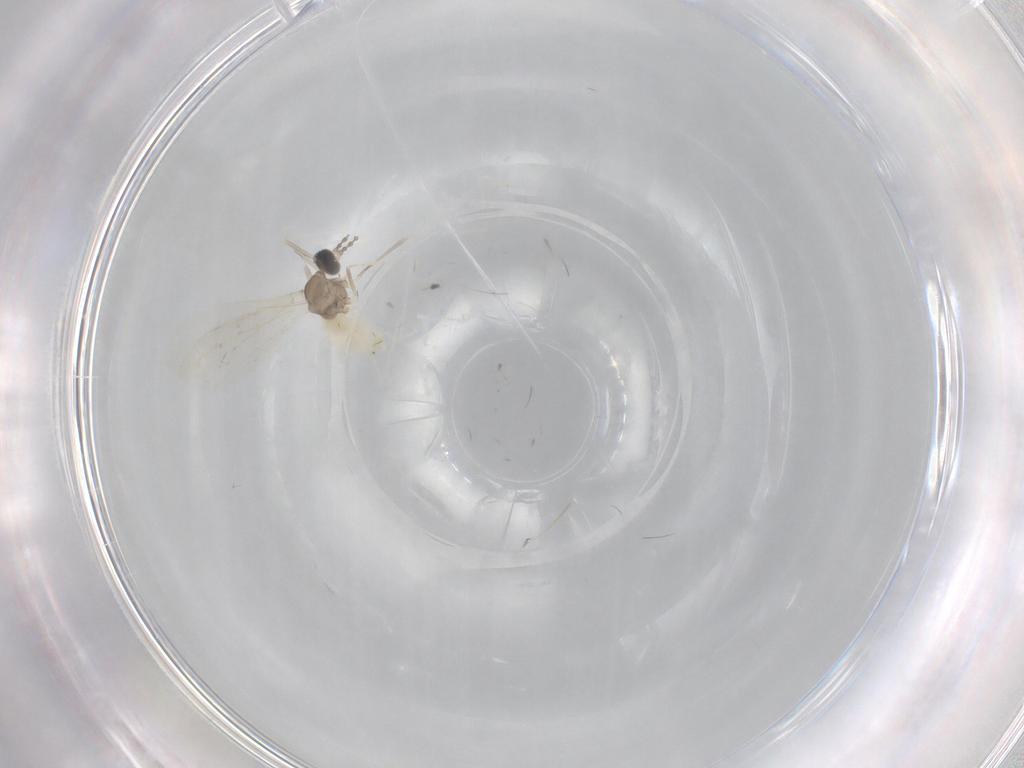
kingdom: Animalia
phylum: Arthropoda
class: Insecta
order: Diptera
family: Cecidomyiidae
